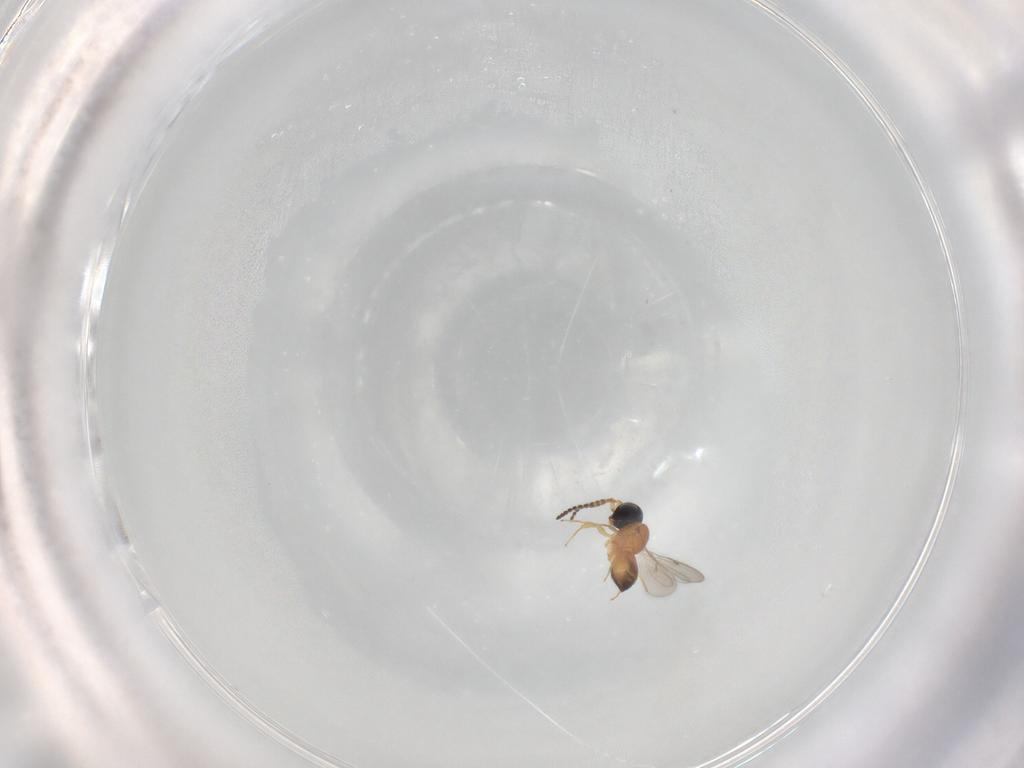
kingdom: Animalia
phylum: Arthropoda
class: Insecta
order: Hymenoptera
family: Scelionidae
